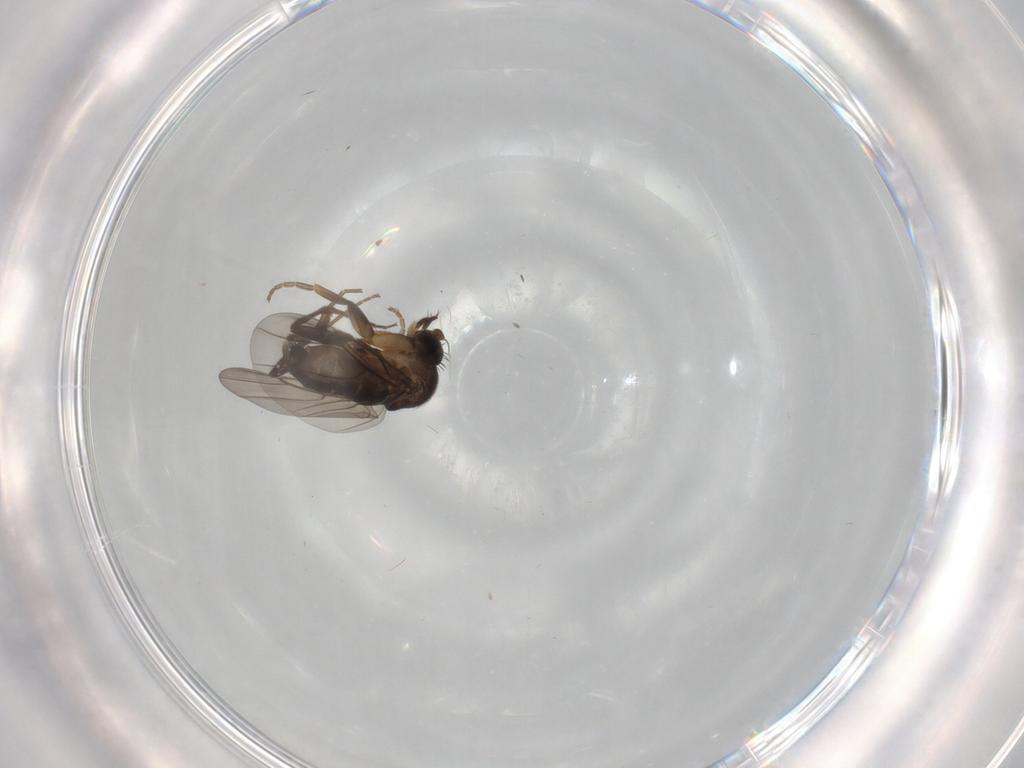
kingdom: Animalia
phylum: Arthropoda
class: Insecta
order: Diptera
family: Phoridae
